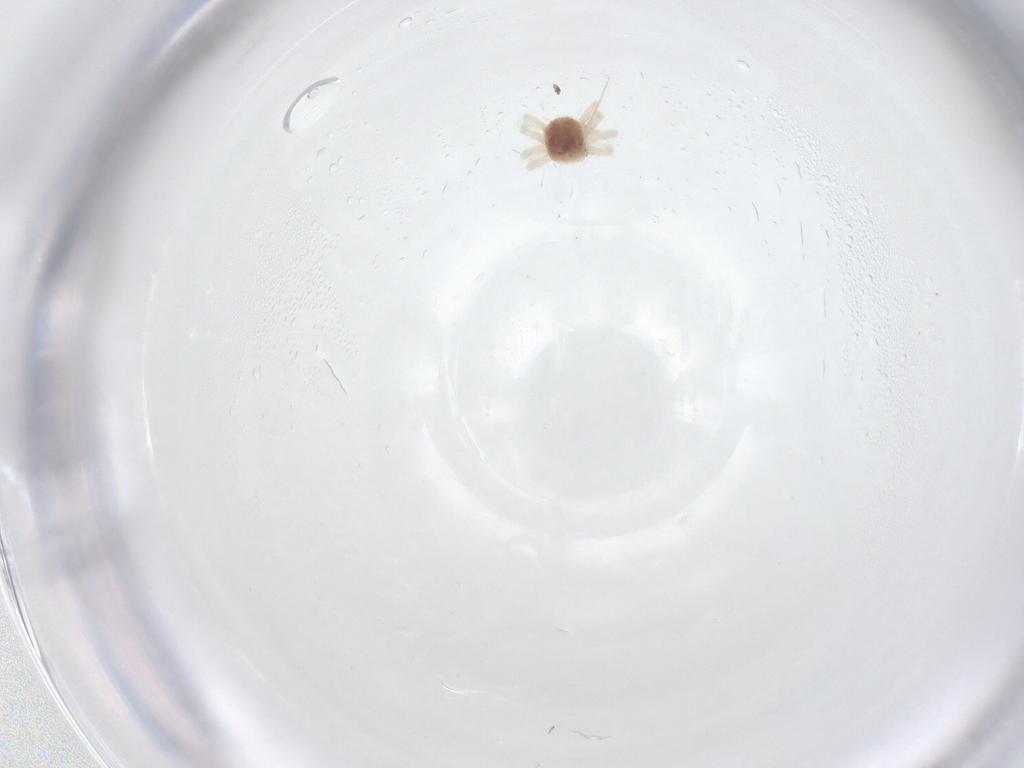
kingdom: Animalia
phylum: Arthropoda
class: Arachnida
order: Trombidiformes
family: Anystidae
